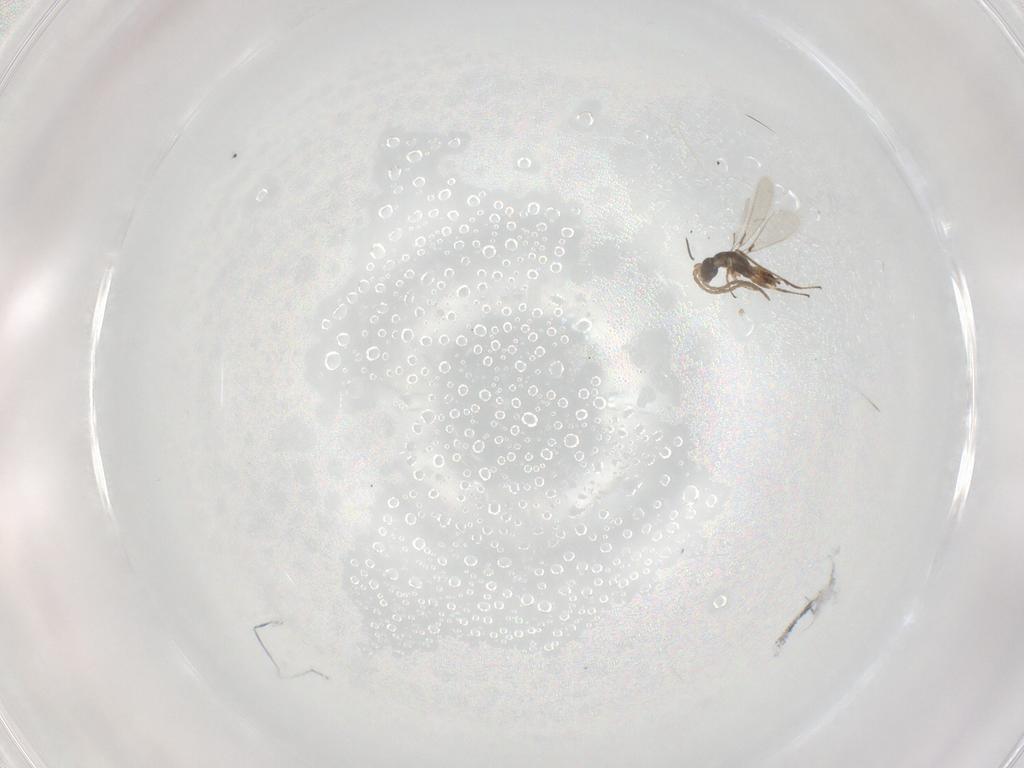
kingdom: Animalia
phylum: Arthropoda
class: Insecta
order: Hymenoptera
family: Mymaridae
